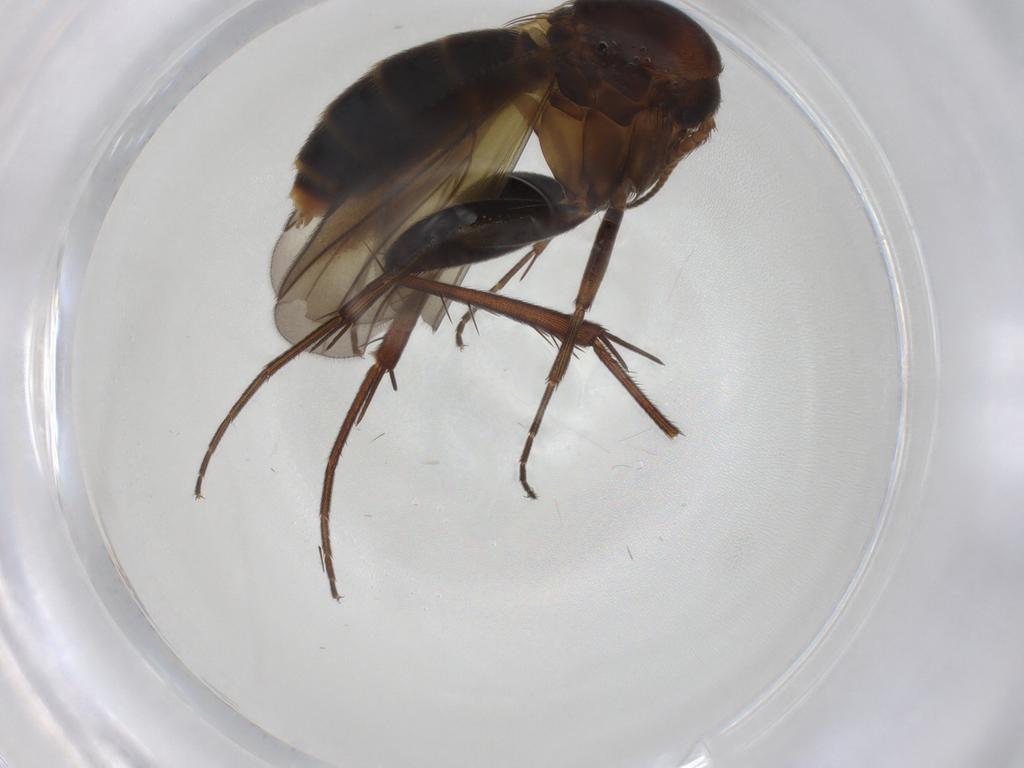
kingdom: Animalia
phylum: Arthropoda
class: Insecta
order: Diptera
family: Mycetophilidae
